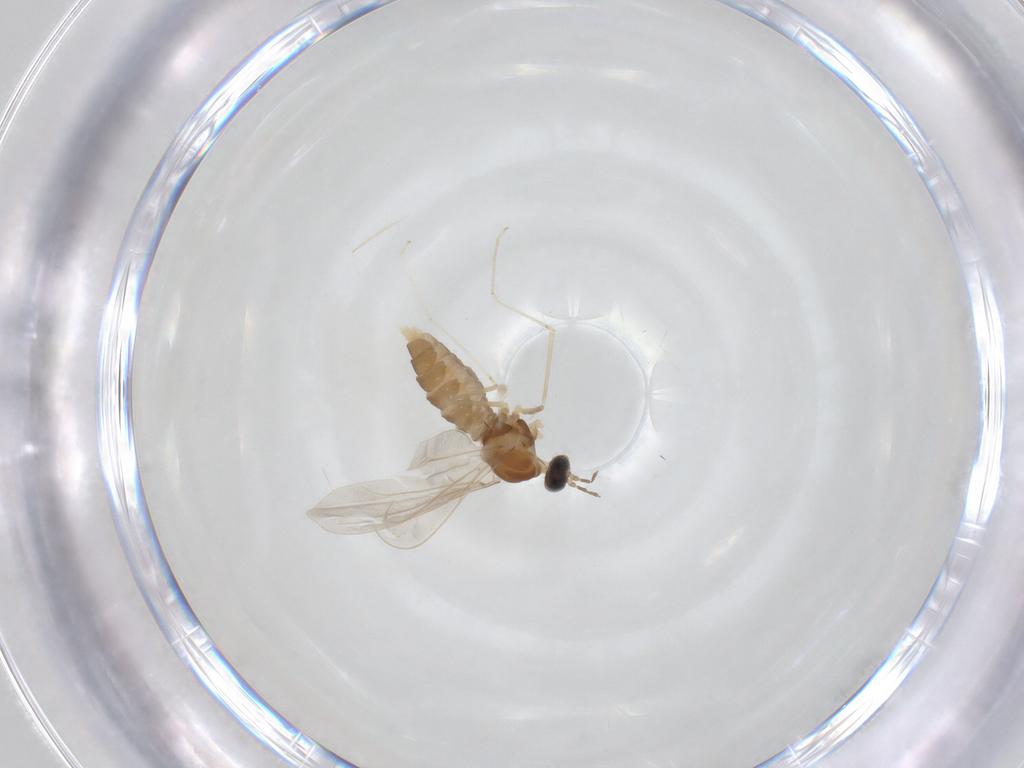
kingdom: Animalia
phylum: Arthropoda
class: Insecta
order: Diptera
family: Cecidomyiidae
